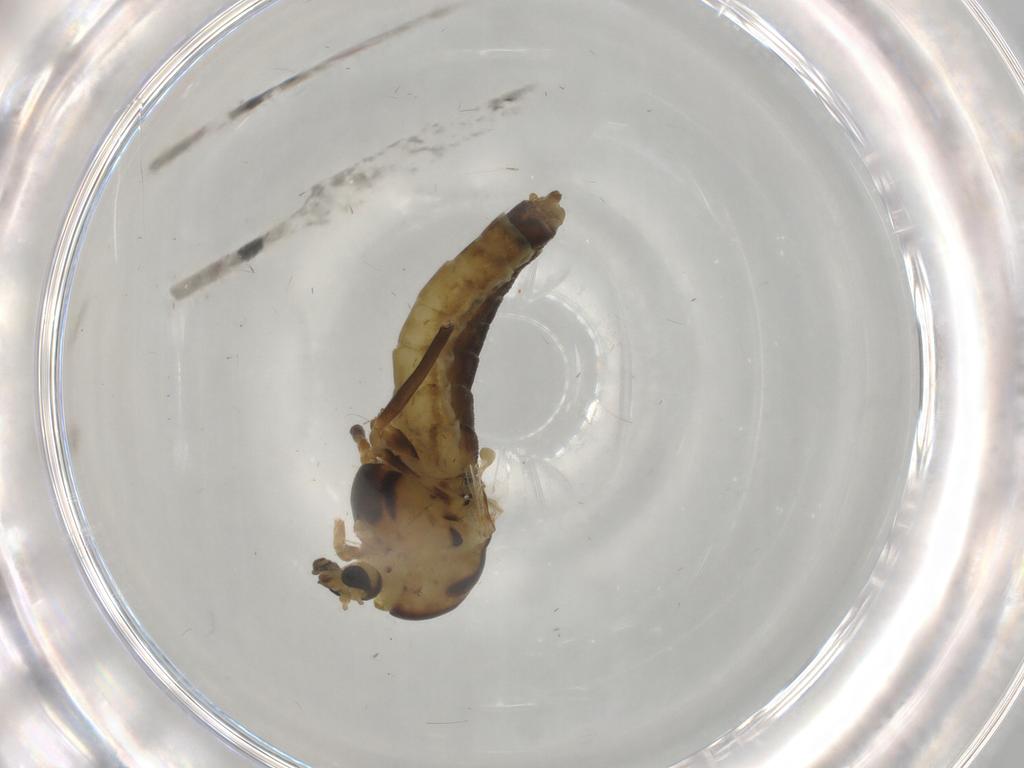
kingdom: Animalia
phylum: Arthropoda
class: Insecta
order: Diptera
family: Chironomidae
